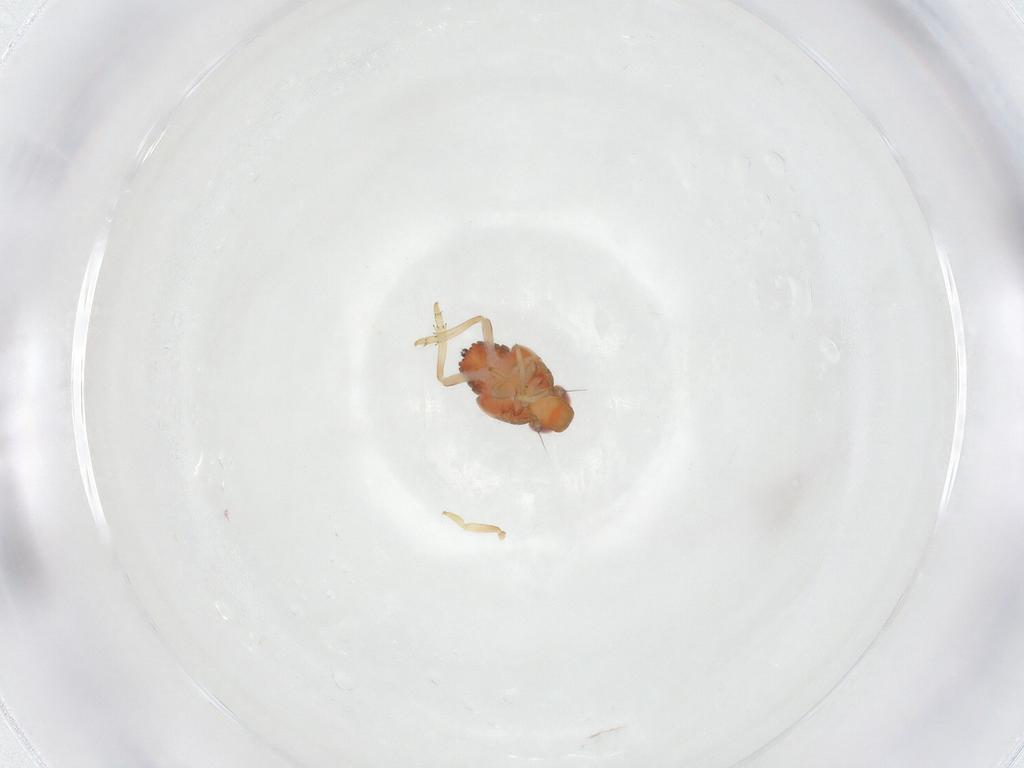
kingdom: Animalia
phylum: Arthropoda
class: Insecta
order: Hemiptera
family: Issidae
